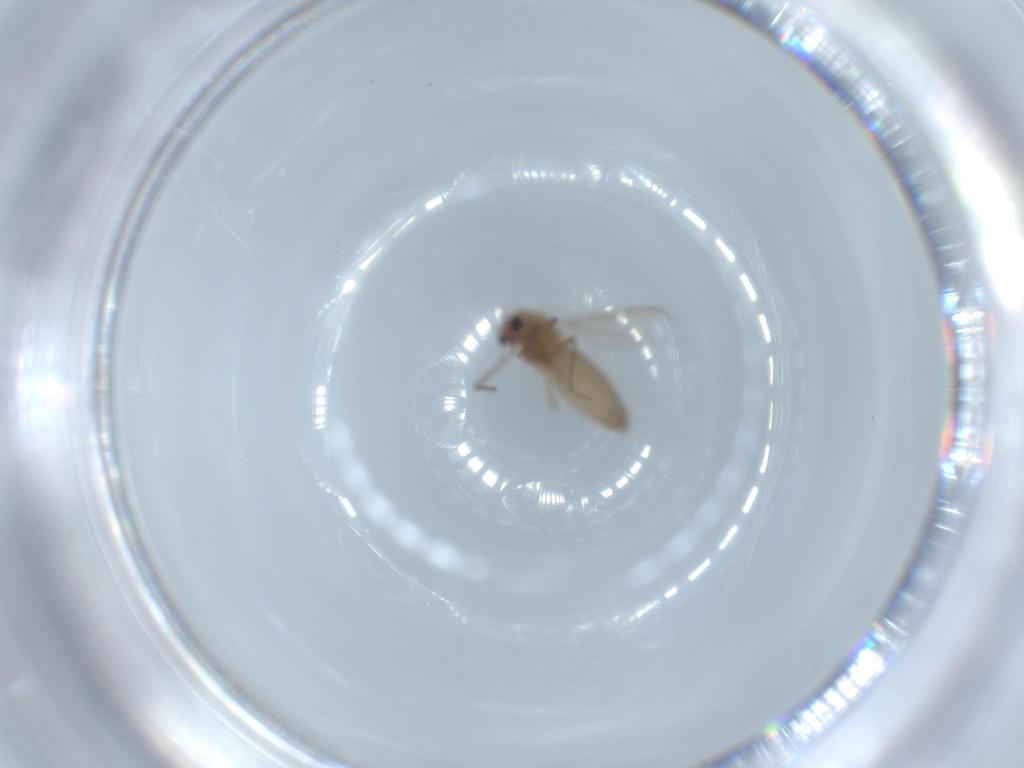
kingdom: Animalia
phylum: Arthropoda
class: Insecta
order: Diptera
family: Chironomidae
